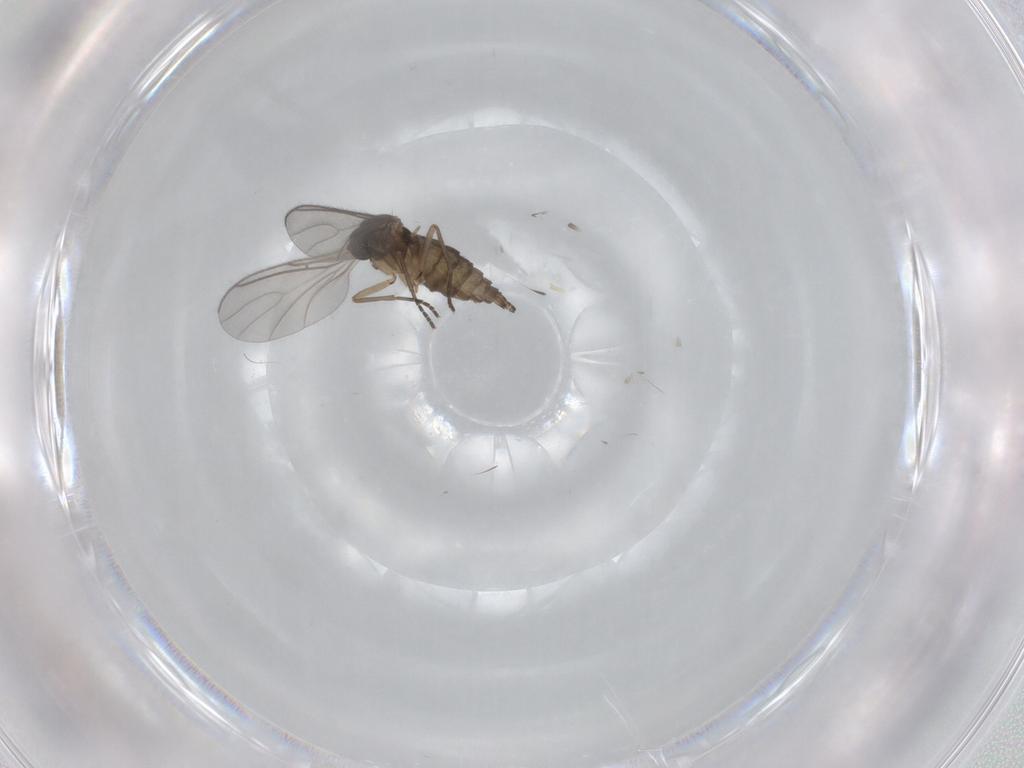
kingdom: Animalia
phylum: Arthropoda
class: Insecta
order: Diptera
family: Sciaridae
